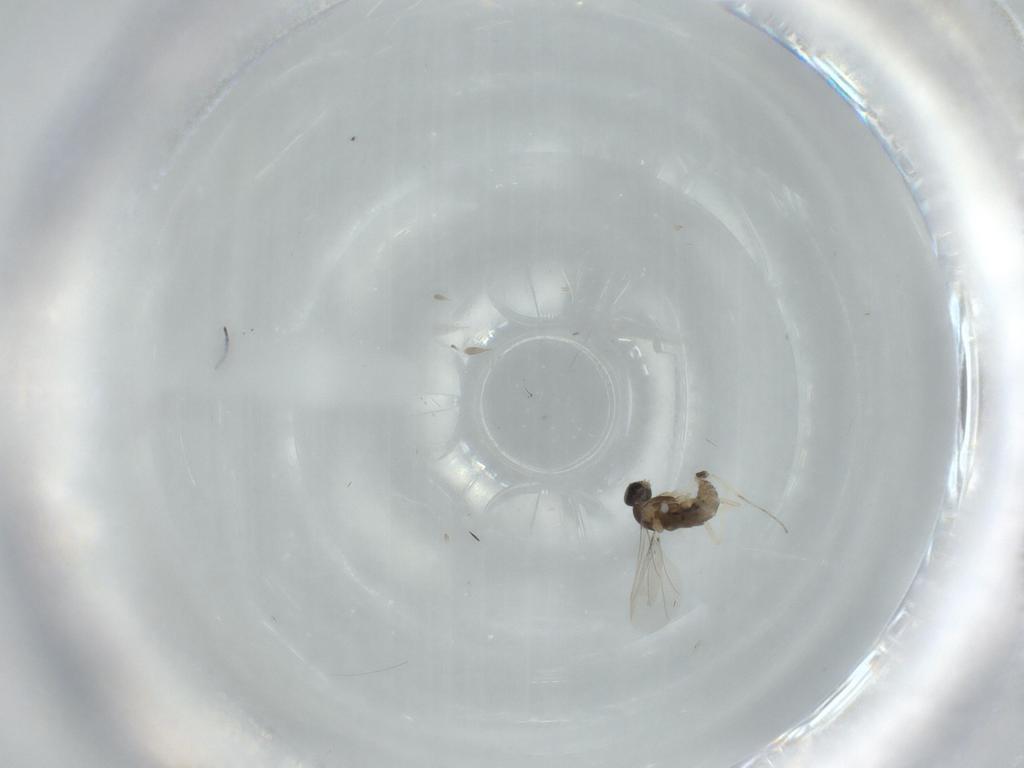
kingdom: Animalia
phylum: Arthropoda
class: Insecta
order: Diptera
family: Cecidomyiidae
